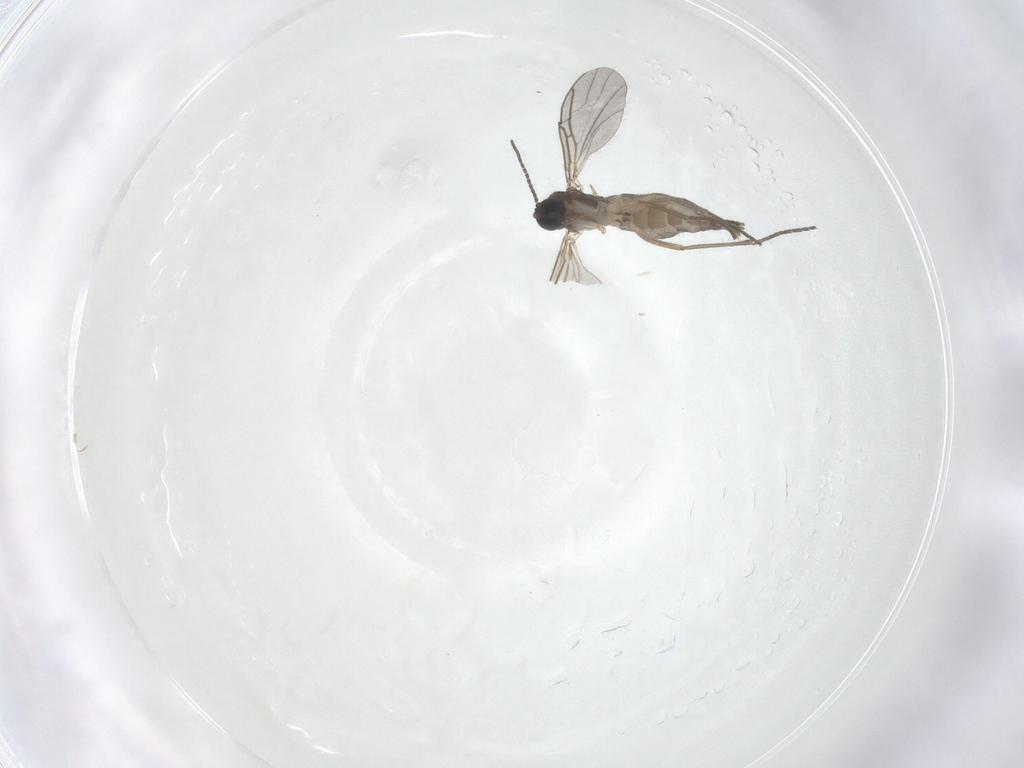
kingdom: Animalia
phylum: Arthropoda
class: Insecta
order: Diptera
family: Sciaridae
